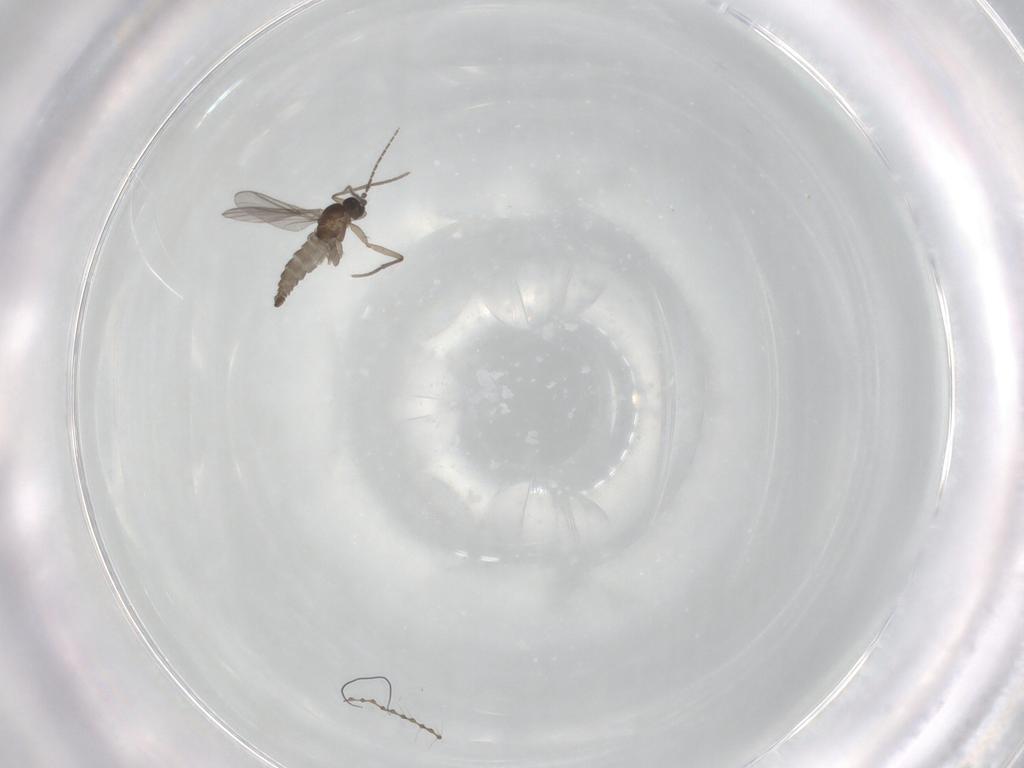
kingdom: Animalia
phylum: Arthropoda
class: Insecta
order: Diptera
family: Sciaridae
